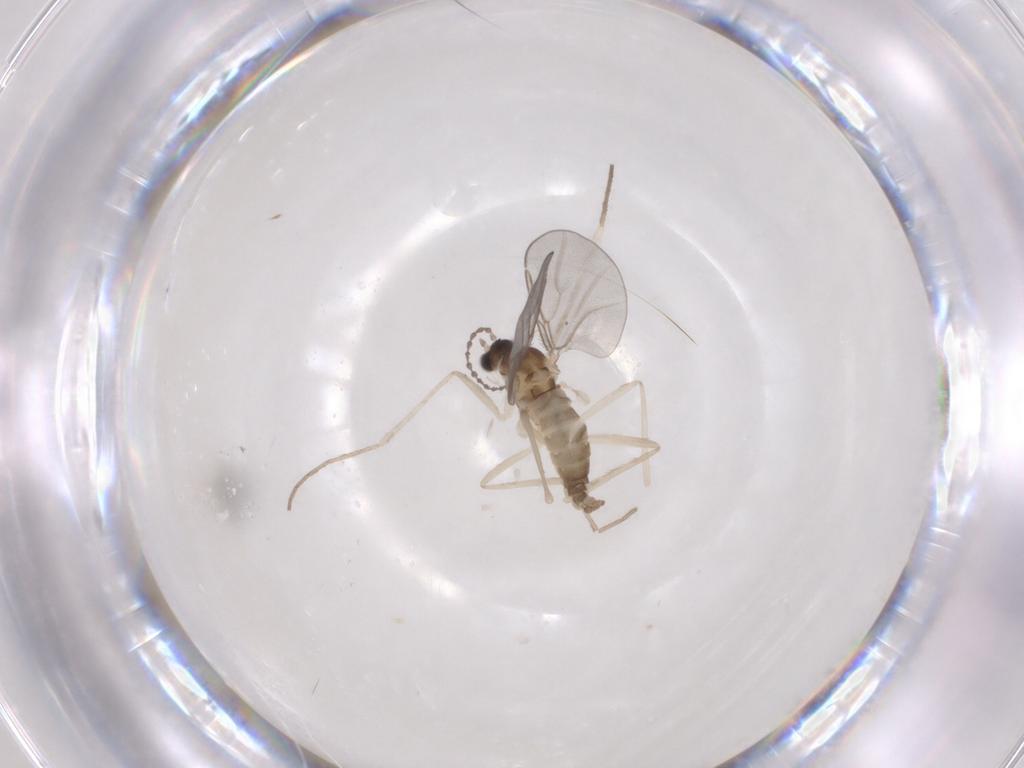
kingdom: Animalia
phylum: Arthropoda
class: Insecta
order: Diptera
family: Cecidomyiidae
